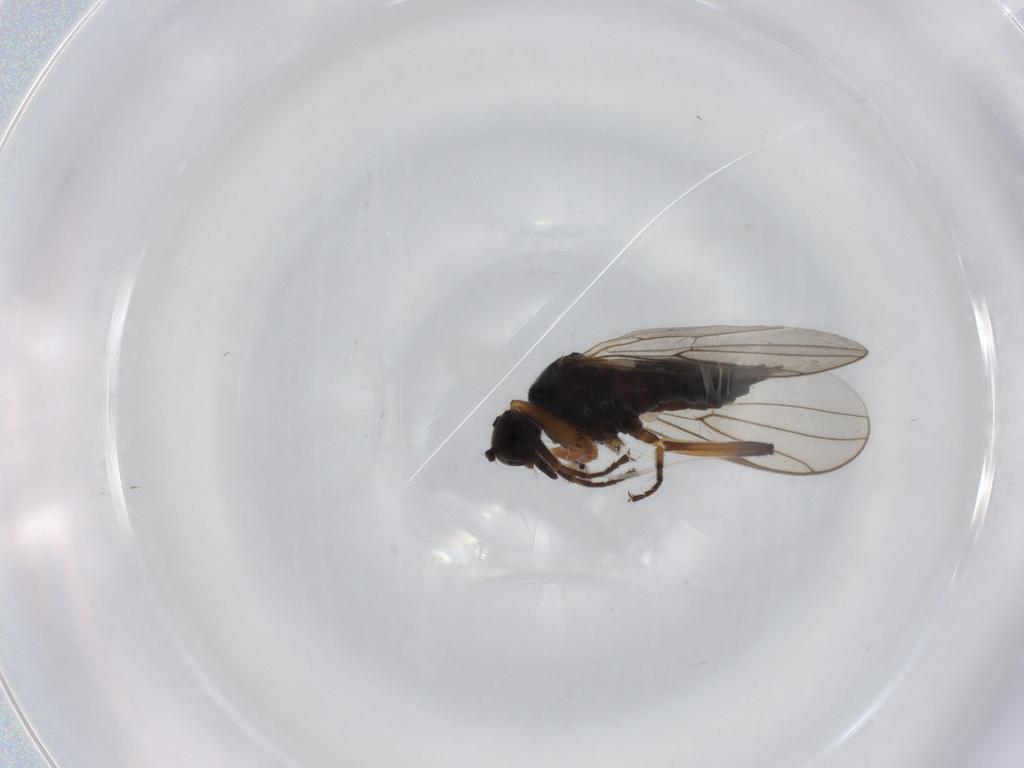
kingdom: Animalia
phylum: Arthropoda
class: Insecta
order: Diptera
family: Hybotidae
